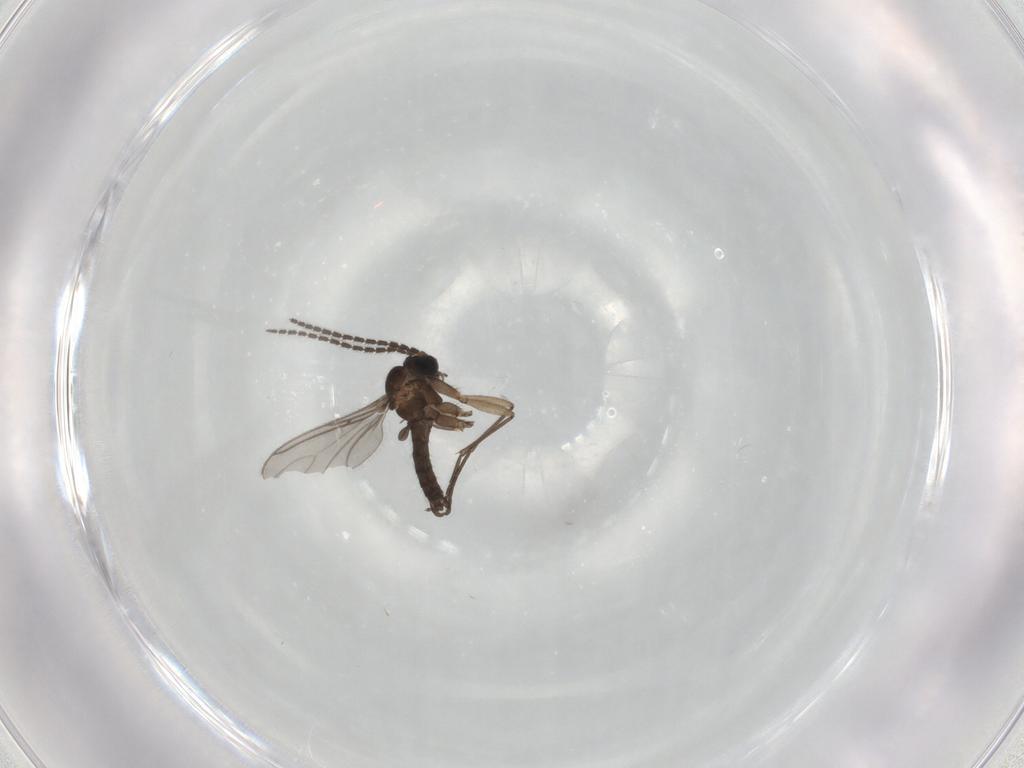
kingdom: Animalia
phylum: Arthropoda
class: Insecta
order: Diptera
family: Sciaridae
